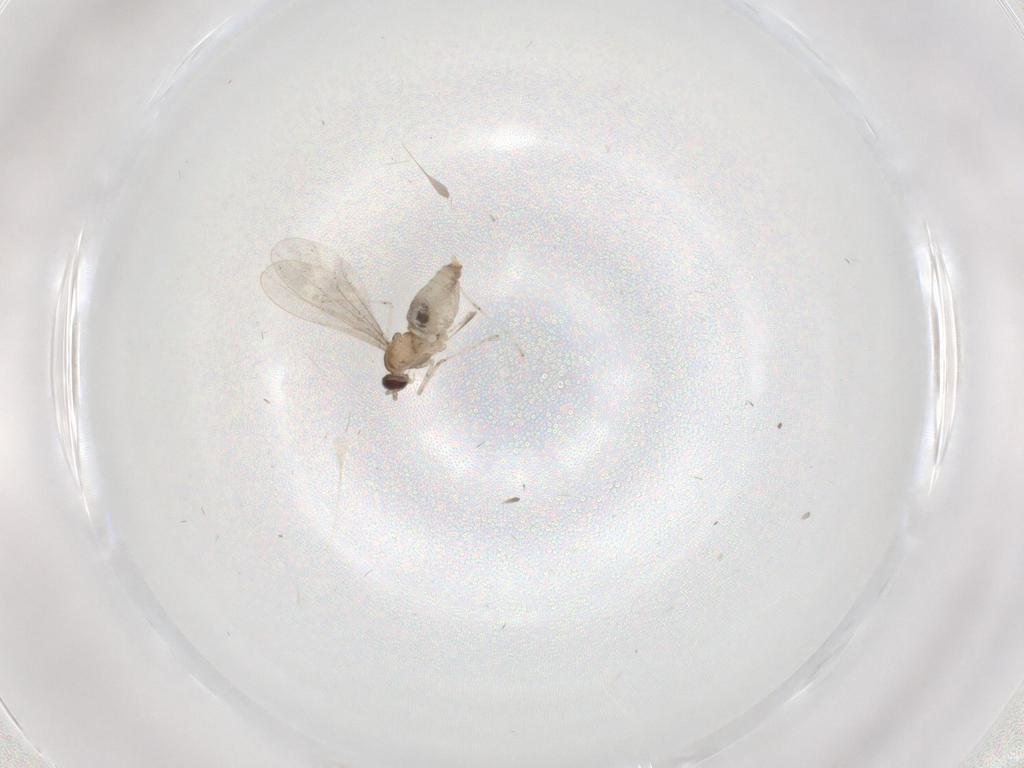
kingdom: Animalia
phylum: Arthropoda
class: Insecta
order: Diptera
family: Cecidomyiidae
